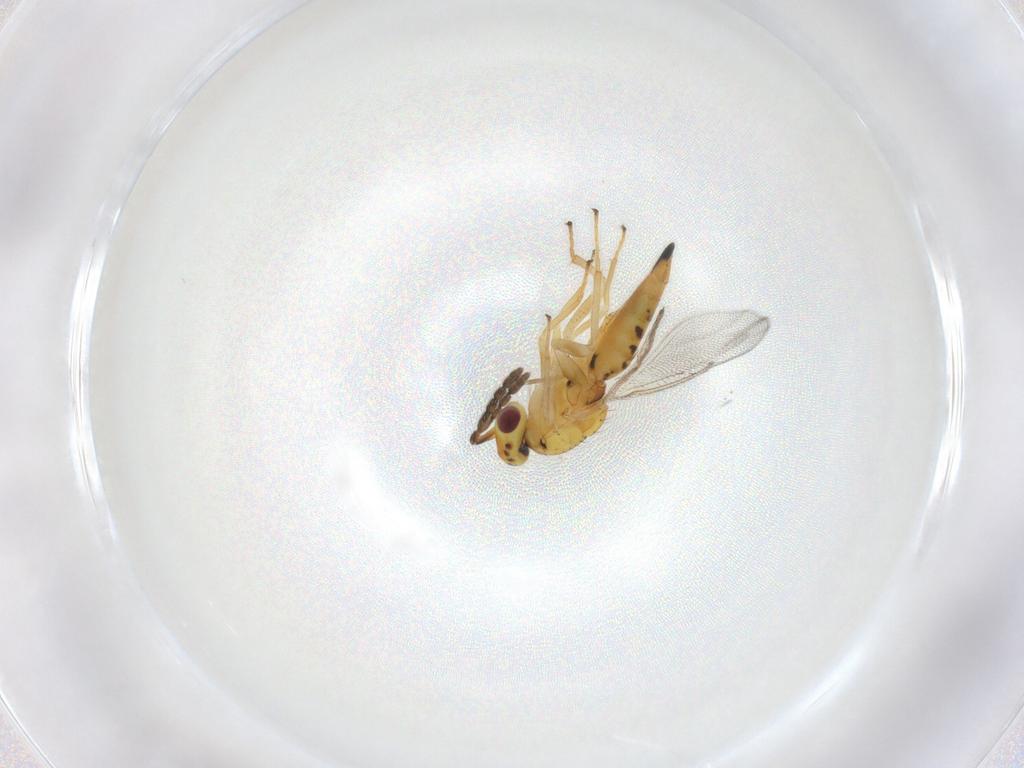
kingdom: Animalia
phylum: Arthropoda
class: Insecta
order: Hymenoptera
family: Eulophidae
